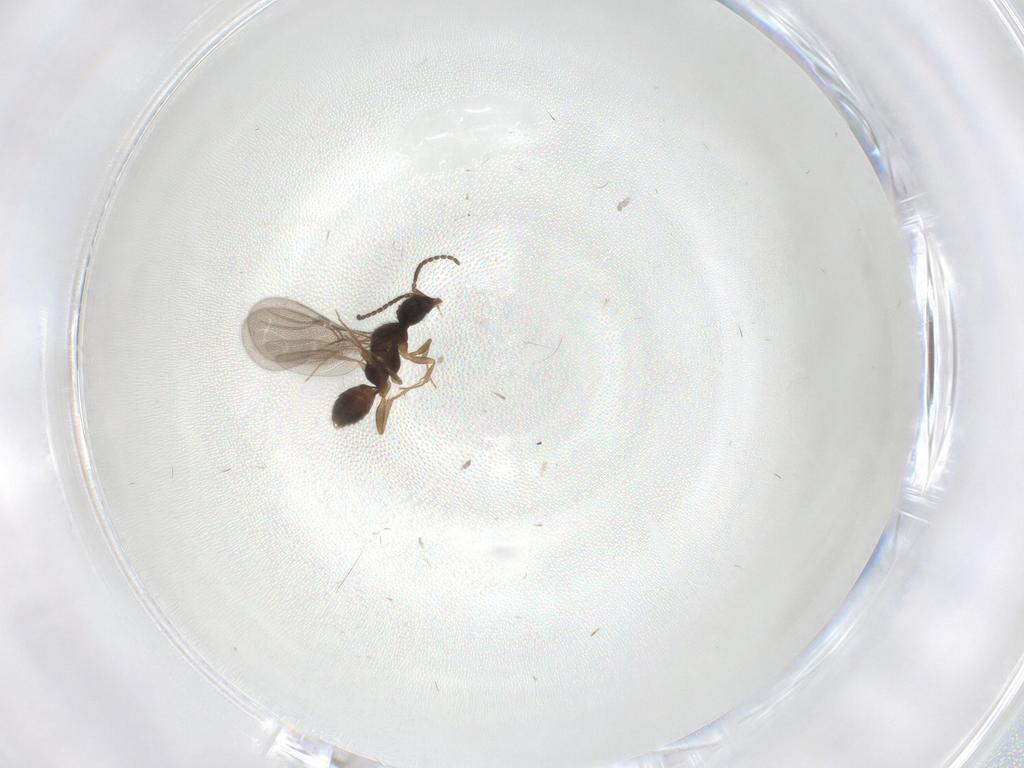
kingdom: Animalia
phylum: Arthropoda
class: Insecta
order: Hymenoptera
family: Bethylidae
